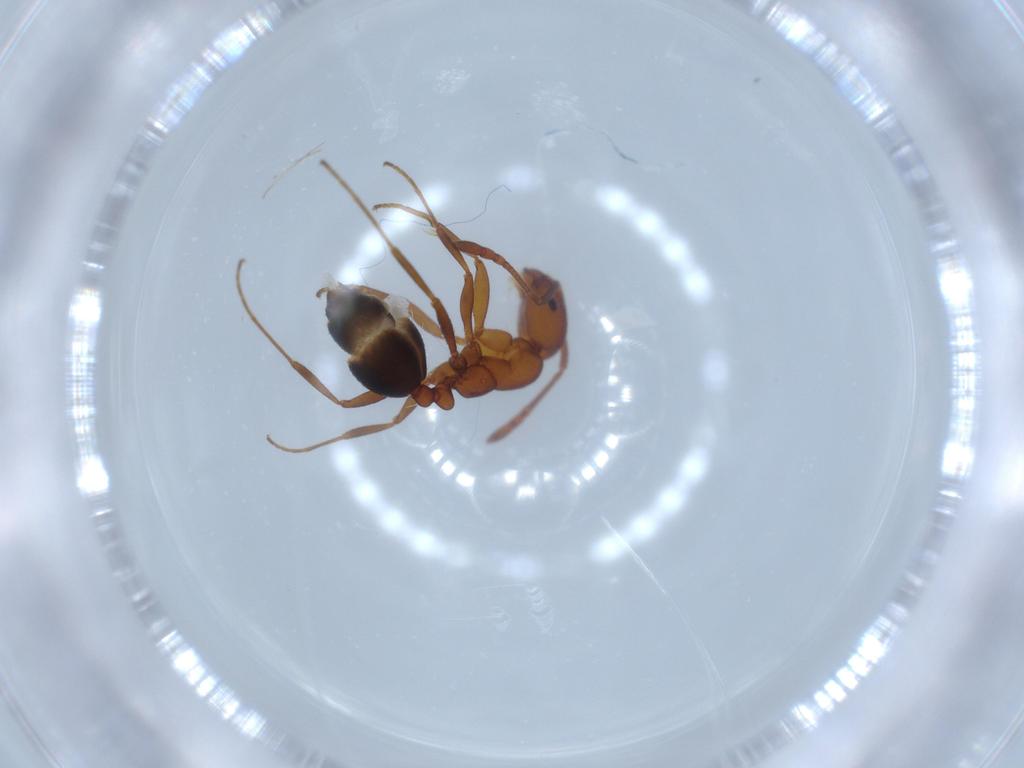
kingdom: Animalia
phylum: Arthropoda
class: Insecta
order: Hymenoptera
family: Formicidae
